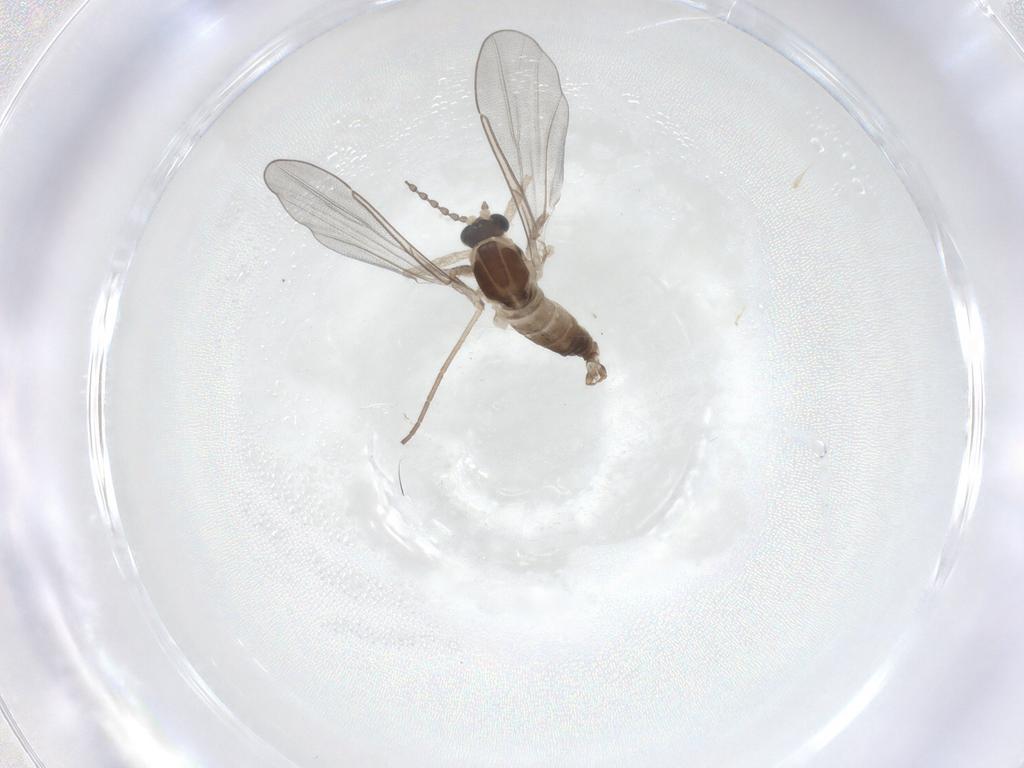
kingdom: Animalia
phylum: Arthropoda
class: Insecta
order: Diptera
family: Cecidomyiidae
